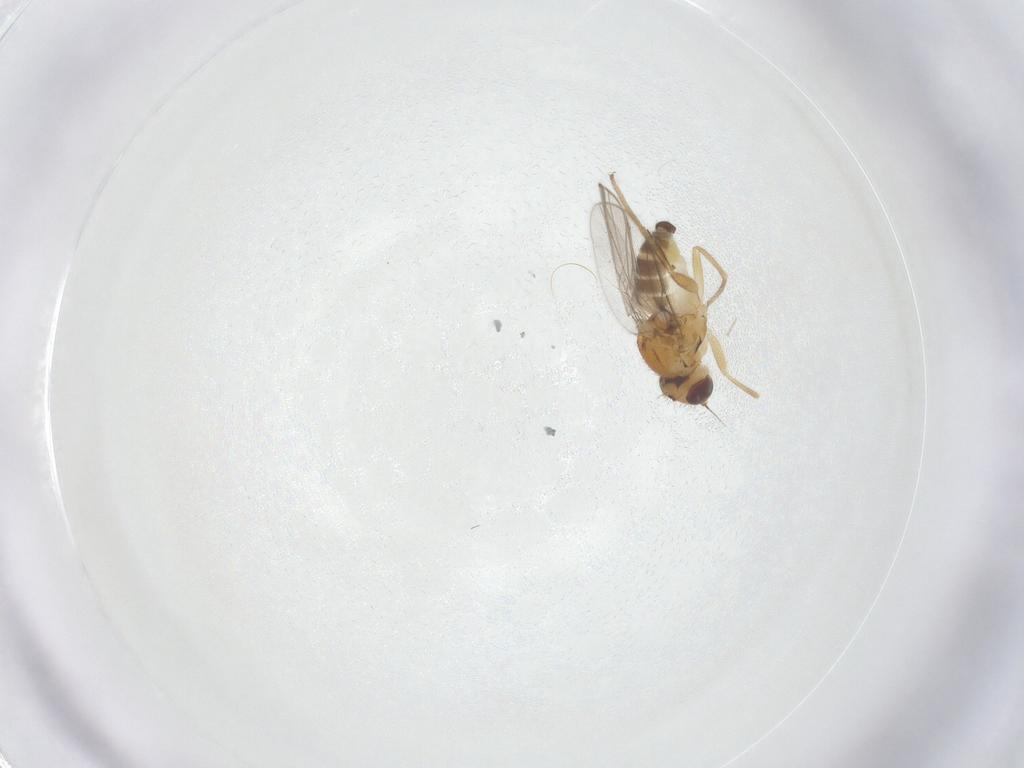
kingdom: Animalia
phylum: Arthropoda
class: Insecta
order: Diptera
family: Chloropidae
